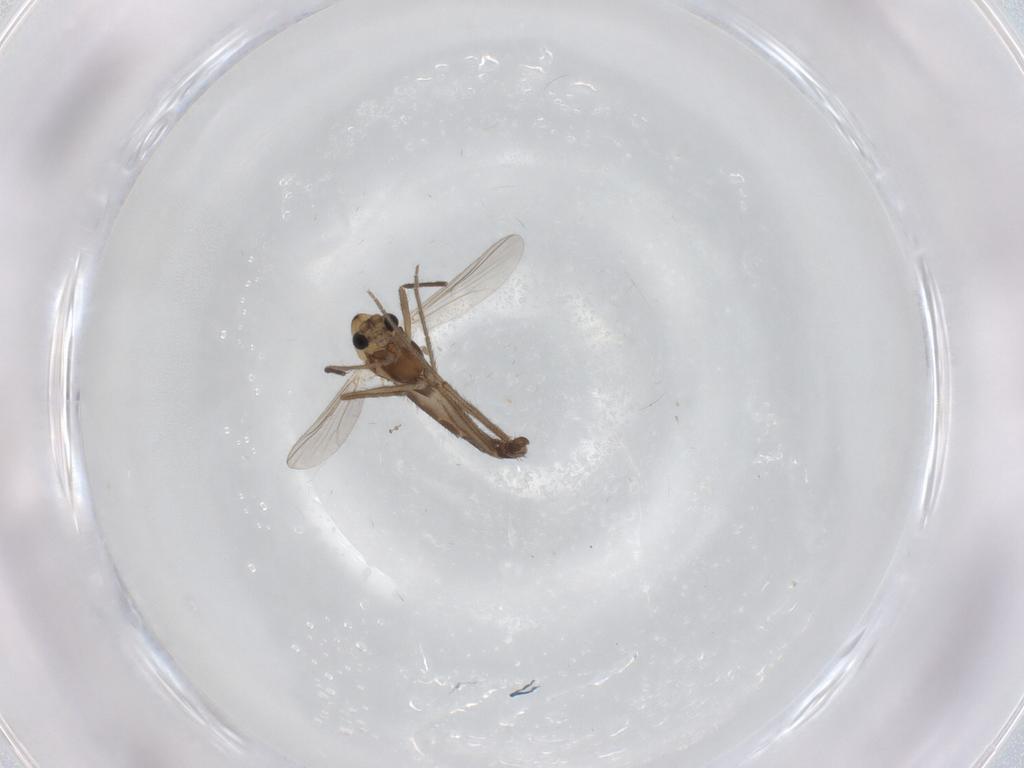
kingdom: Animalia
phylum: Arthropoda
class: Insecta
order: Diptera
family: Chironomidae
